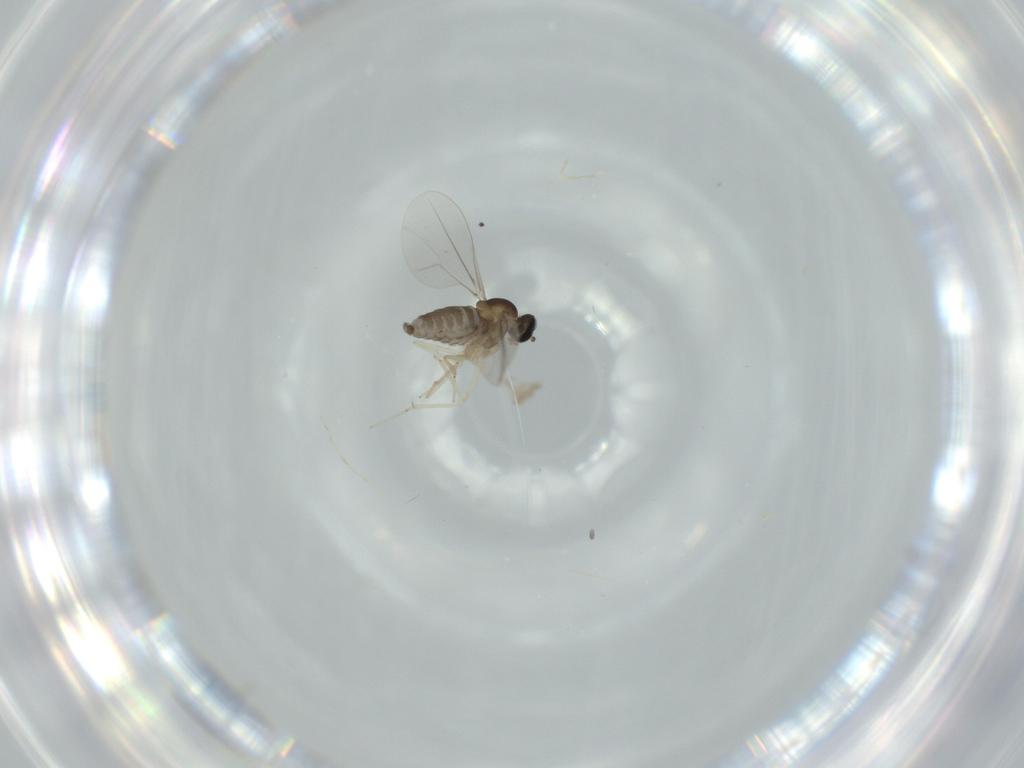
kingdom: Animalia
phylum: Arthropoda
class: Insecta
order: Diptera
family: Cecidomyiidae
